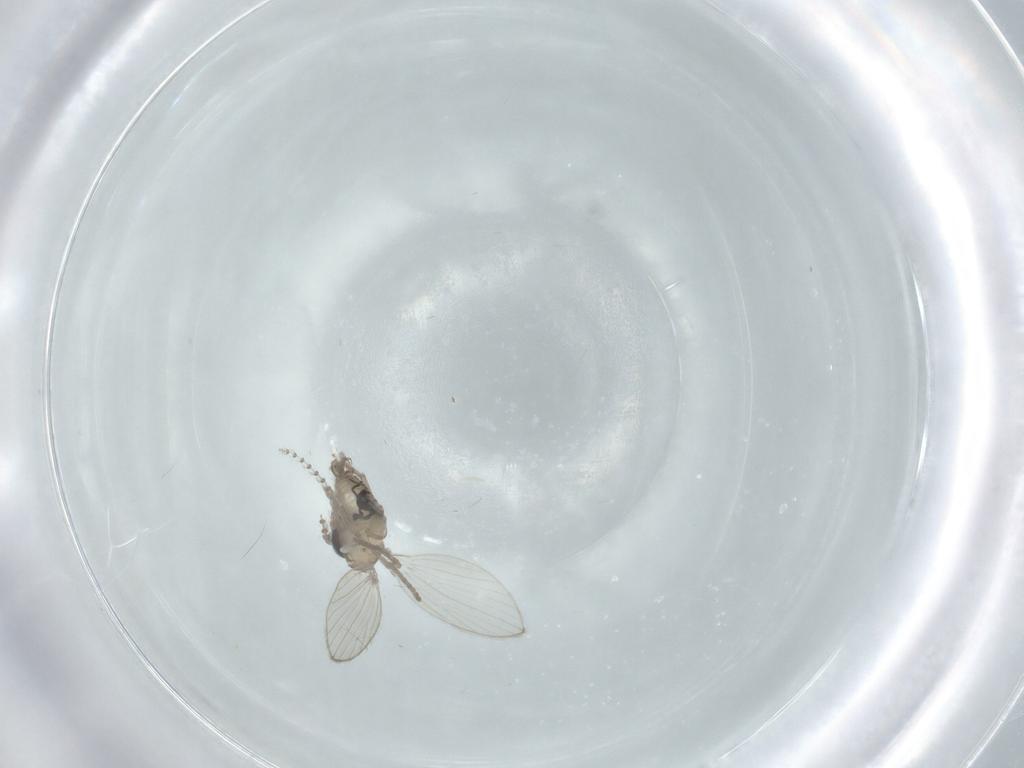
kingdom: Animalia
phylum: Arthropoda
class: Insecta
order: Diptera
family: Psychodidae
